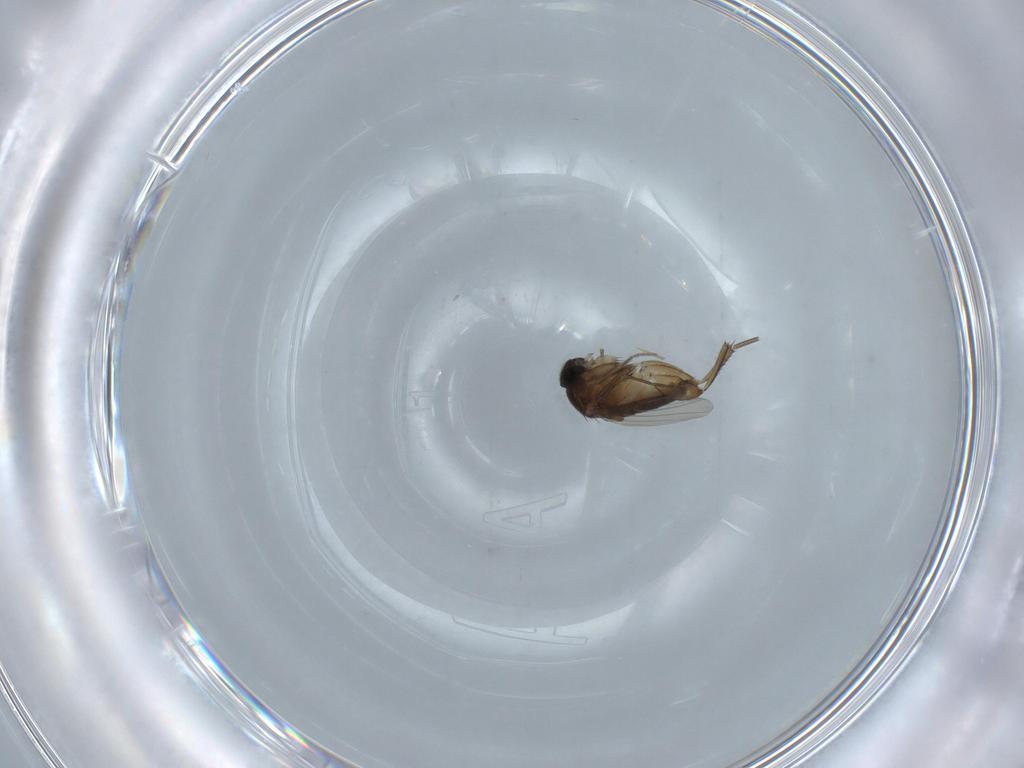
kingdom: Animalia
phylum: Arthropoda
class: Insecta
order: Diptera
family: Phoridae
